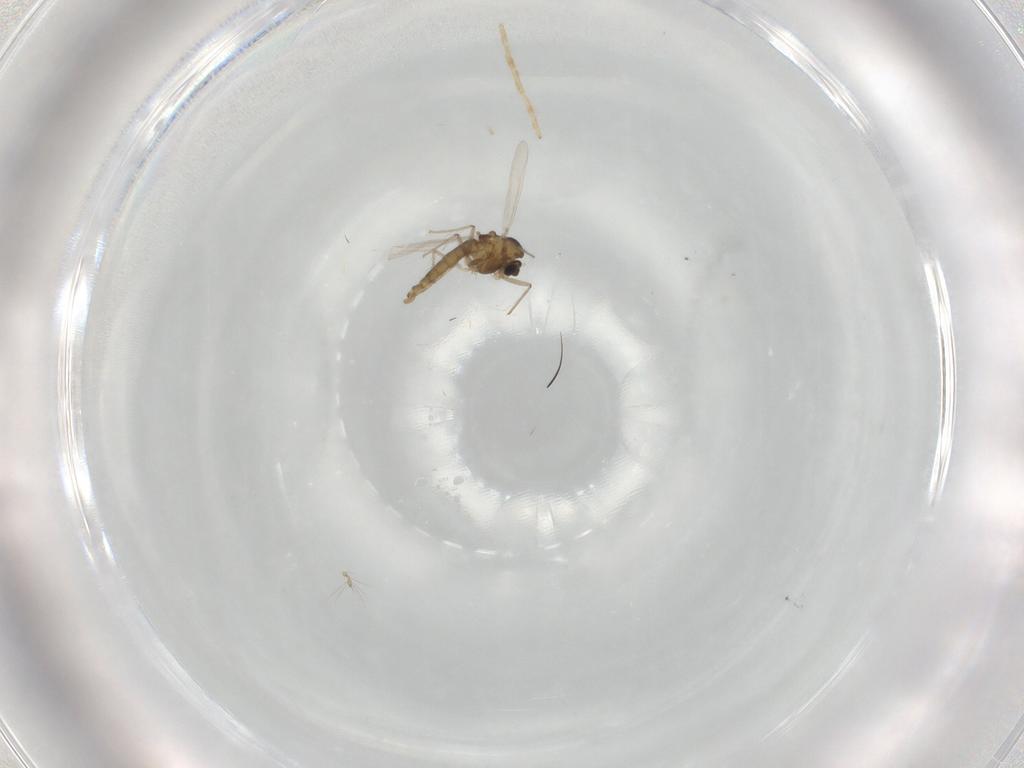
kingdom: Animalia
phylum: Arthropoda
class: Insecta
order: Diptera
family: Chironomidae
